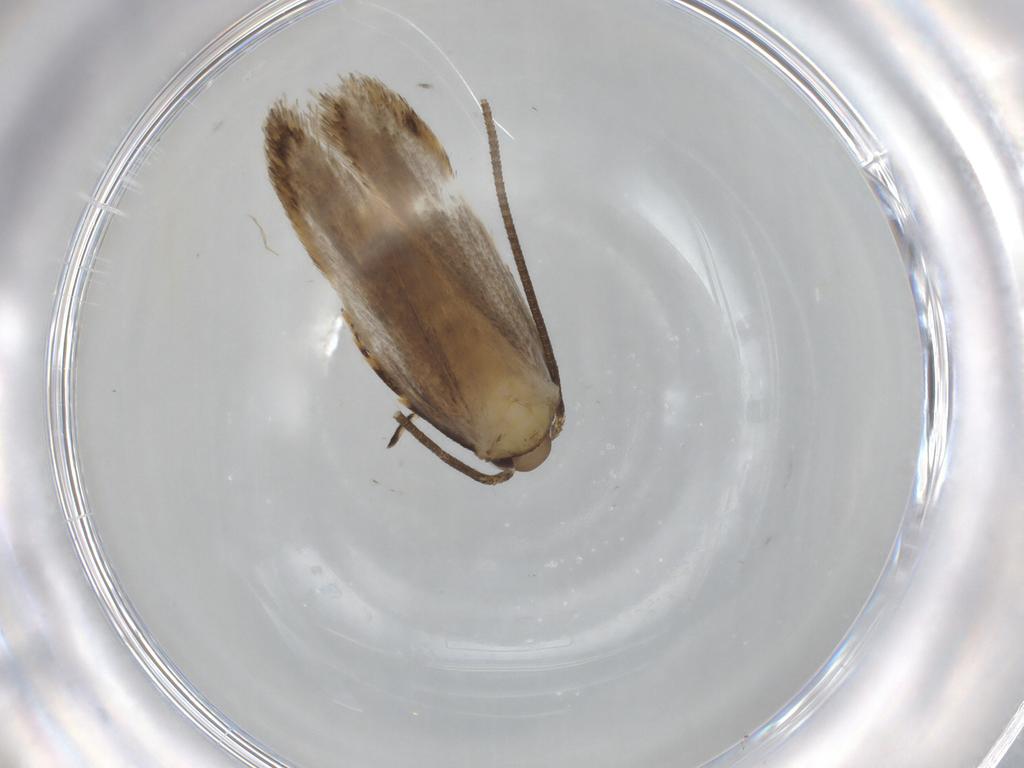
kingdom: Animalia
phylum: Arthropoda
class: Insecta
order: Lepidoptera
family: Autostichidae
